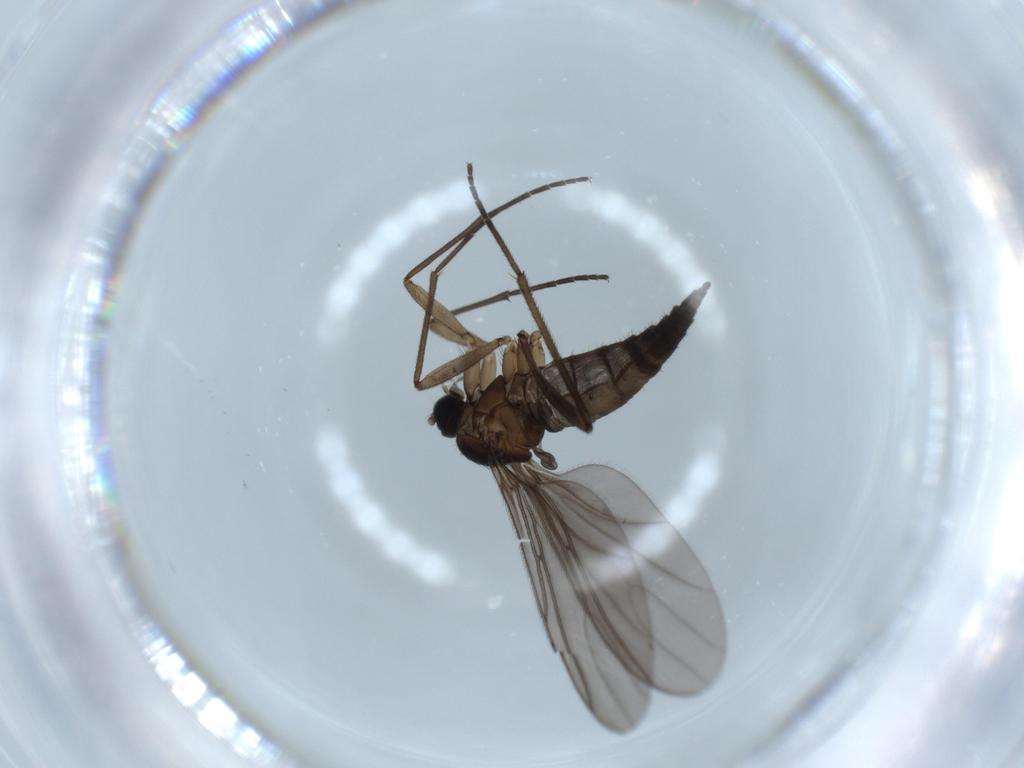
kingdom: Animalia
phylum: Arthropoda
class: Insecta
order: Diptera
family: Sciaridae
